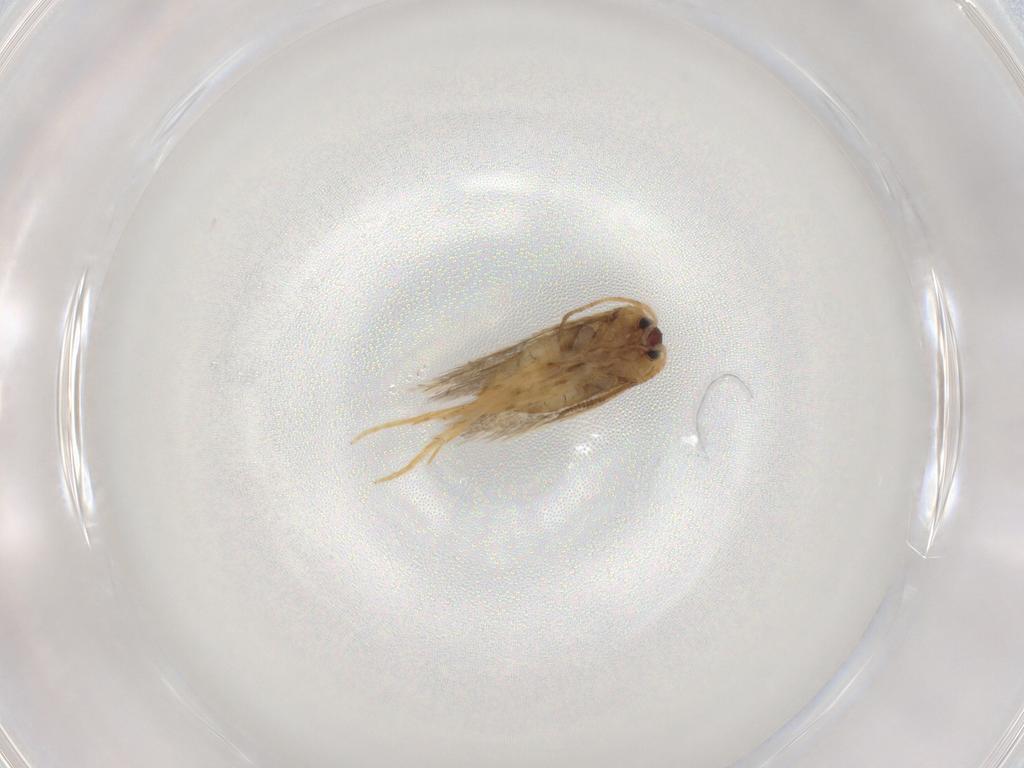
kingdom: Animalia
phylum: Arthropoda
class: Insecta
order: Lepidoptera
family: Nepticulidae
